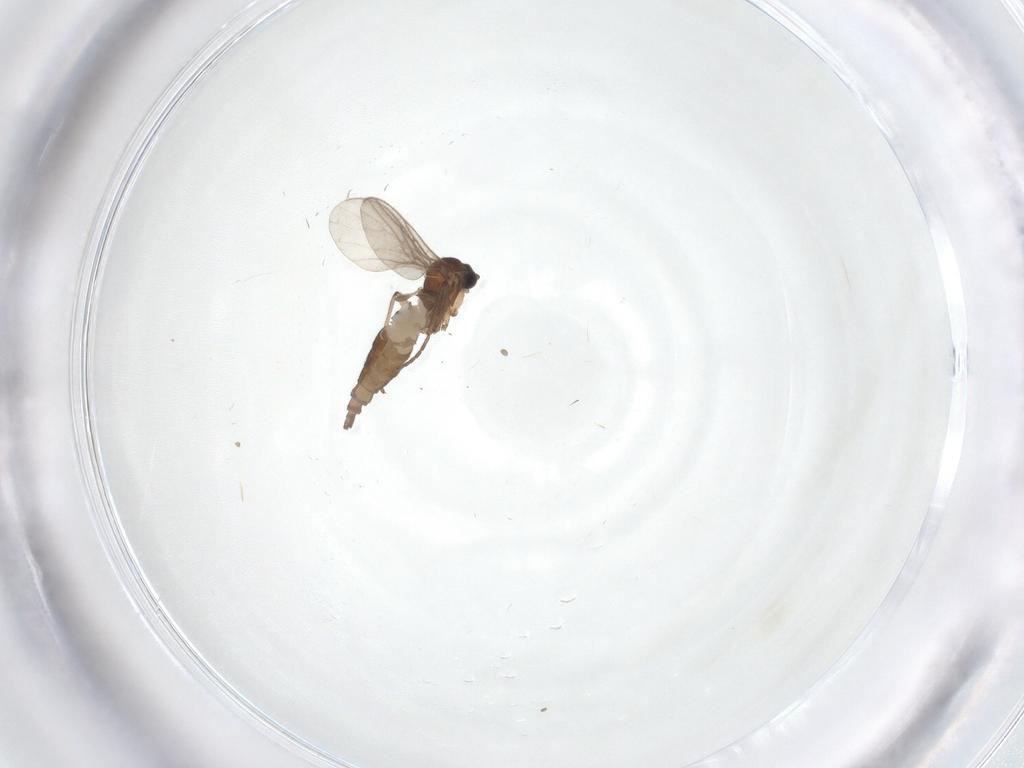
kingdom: Animalia
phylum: Arthropoda
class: Insecta
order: Diptera
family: Sciaridae
